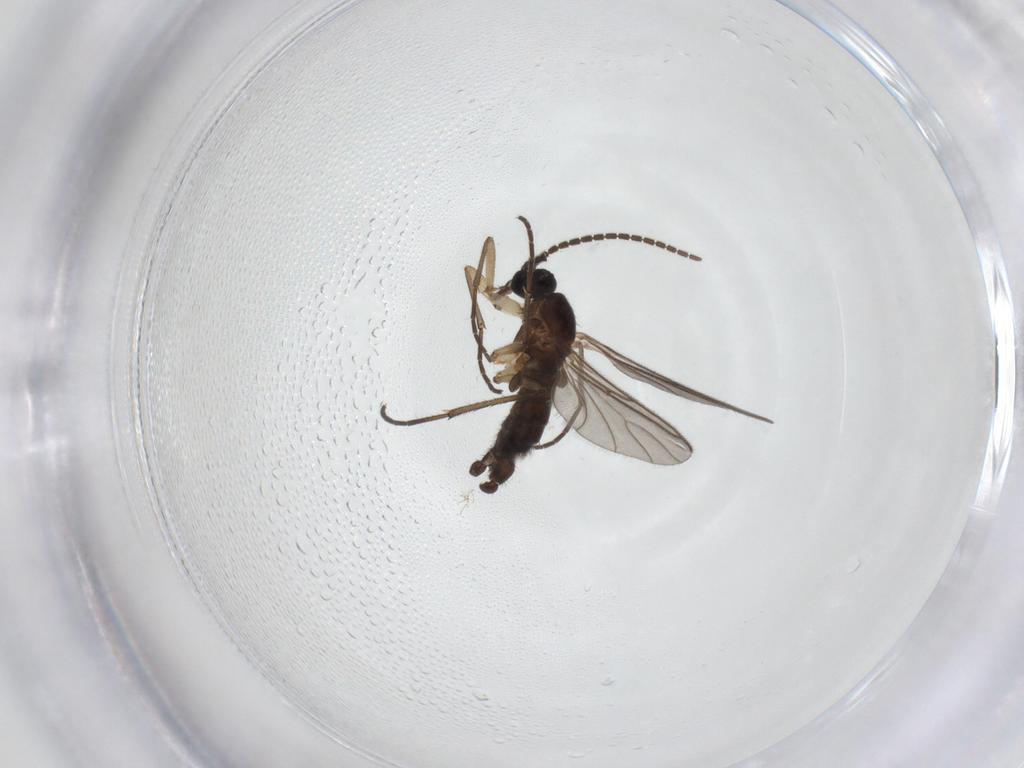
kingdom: Animalia
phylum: Arthropoda
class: Insecta
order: Diptera
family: Sciaridae
